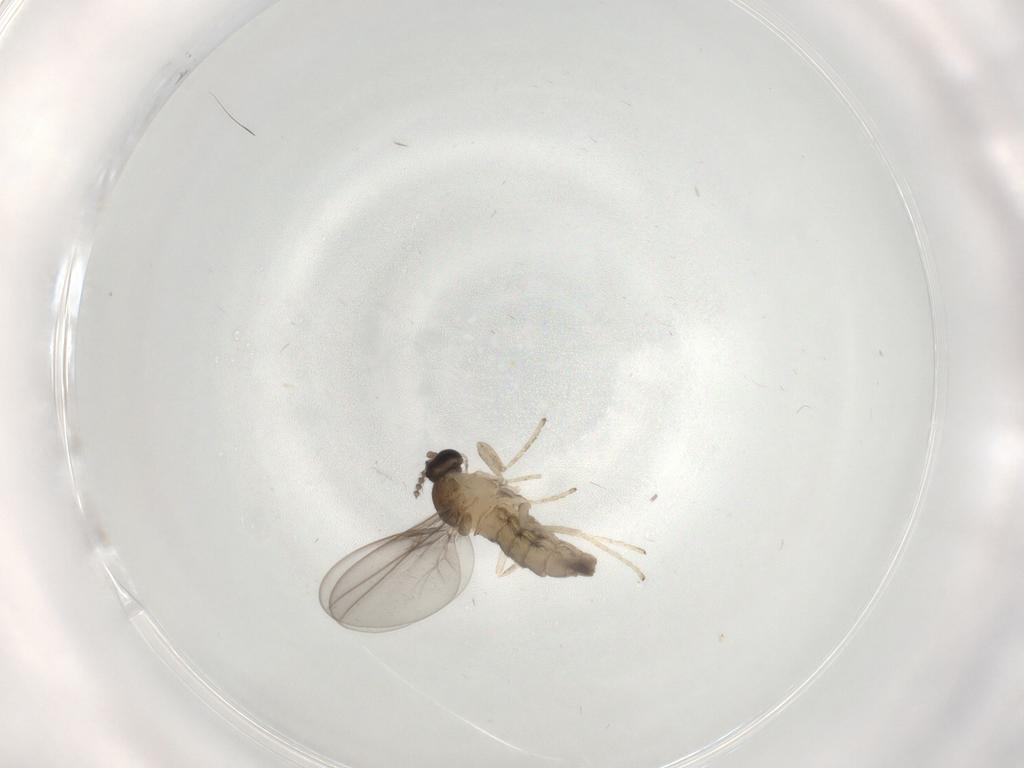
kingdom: Animalia
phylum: Arthropoda
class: Insecta
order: Diptera
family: Cecidomyiidae
